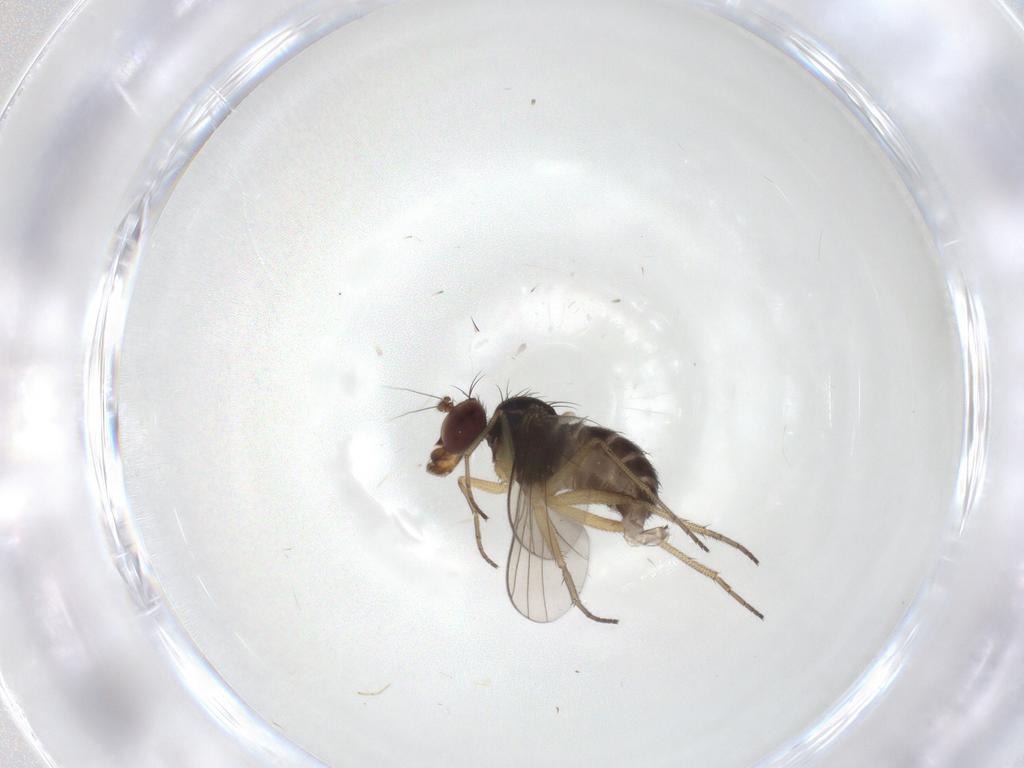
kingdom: Animalia
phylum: Arthropoda
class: Insecta
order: Diptera
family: Dolichopodidae
